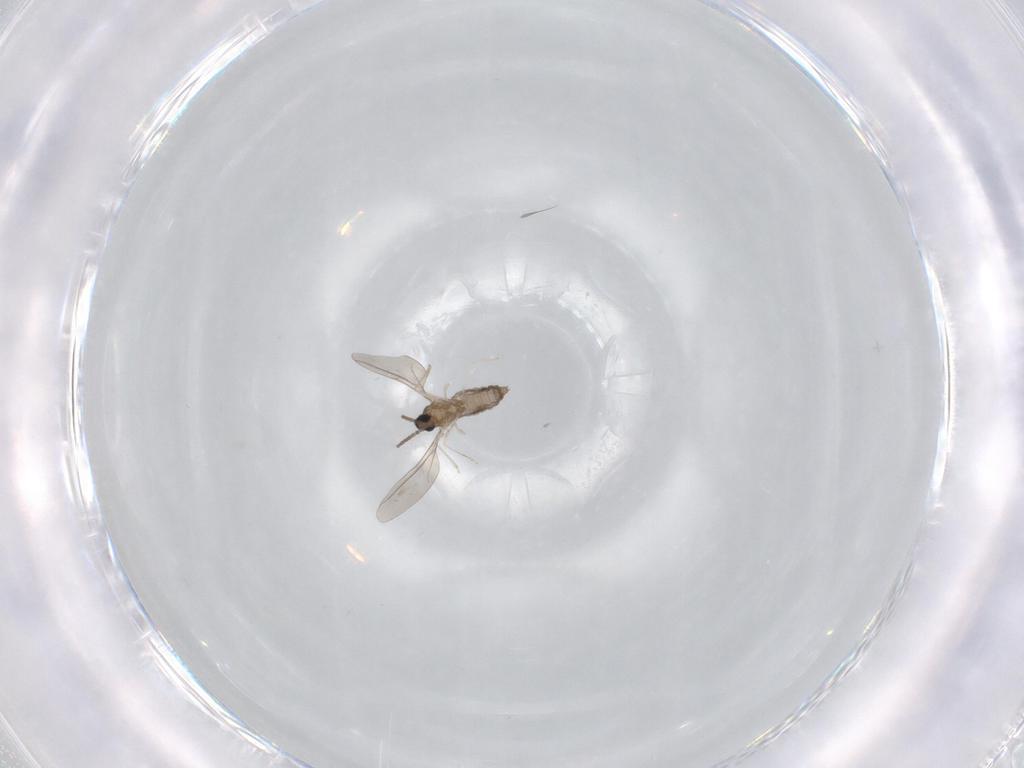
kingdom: Animalia
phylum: Arthropoda
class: Insecta
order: Diptera
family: Cecidomyiidae
